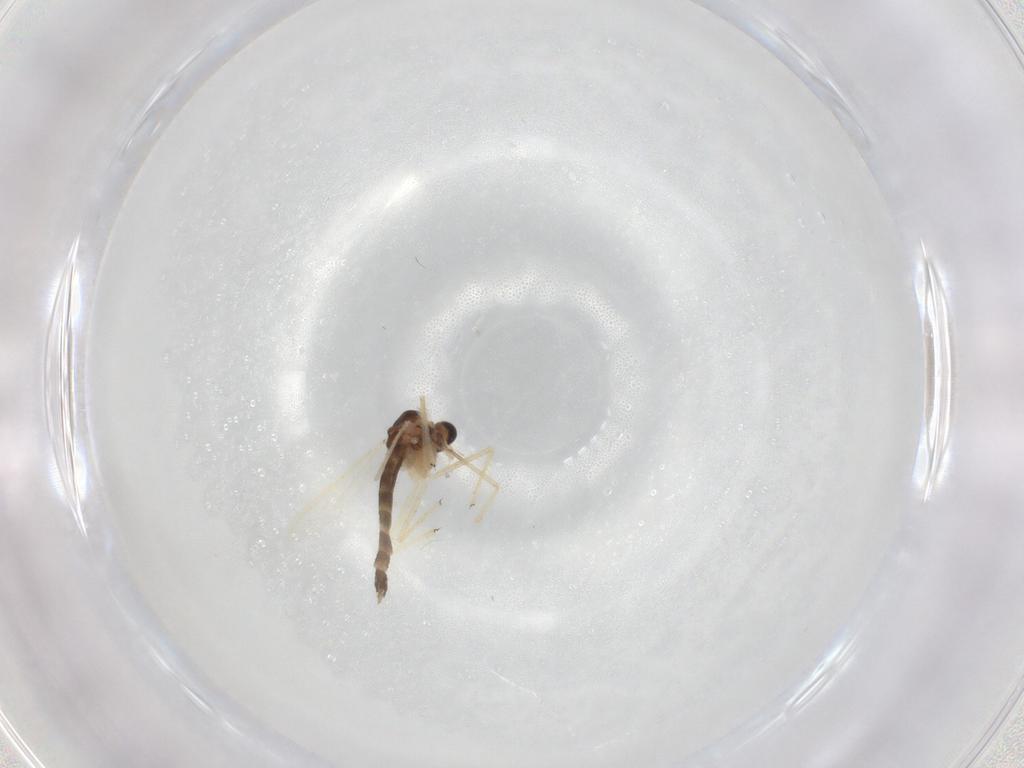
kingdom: Animalia
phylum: Arthropoda
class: Insecta
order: Diptera
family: Chironomidae
